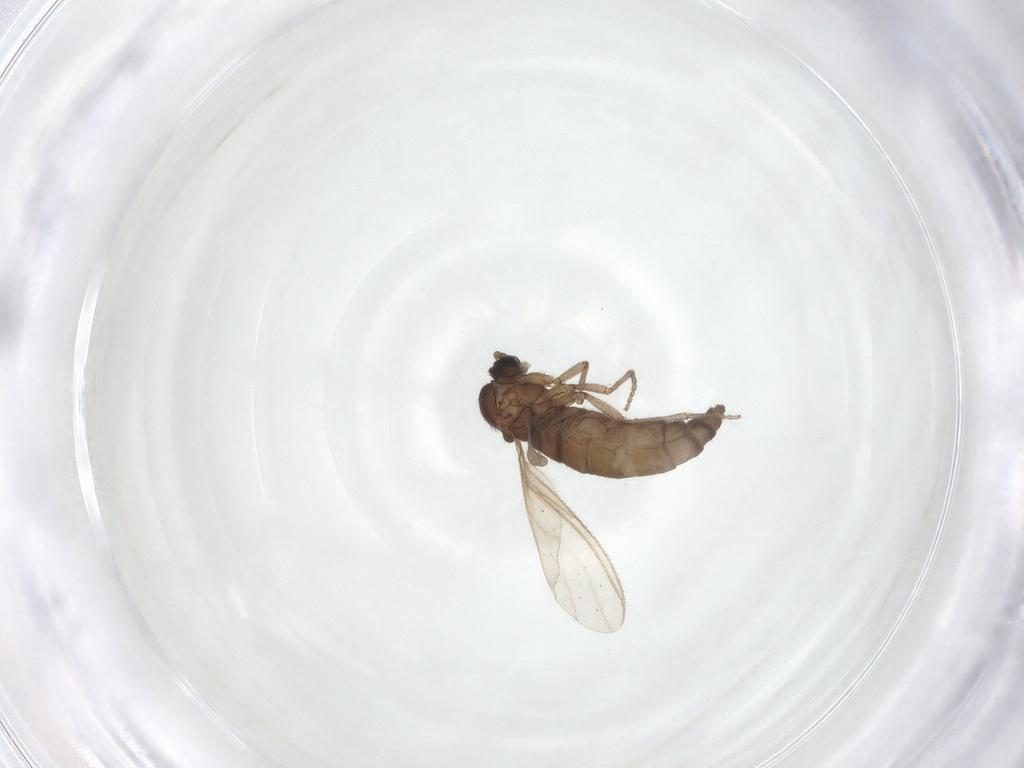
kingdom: Animalia
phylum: Arthropoda
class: Insecta
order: Diptera
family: Sciaridae
